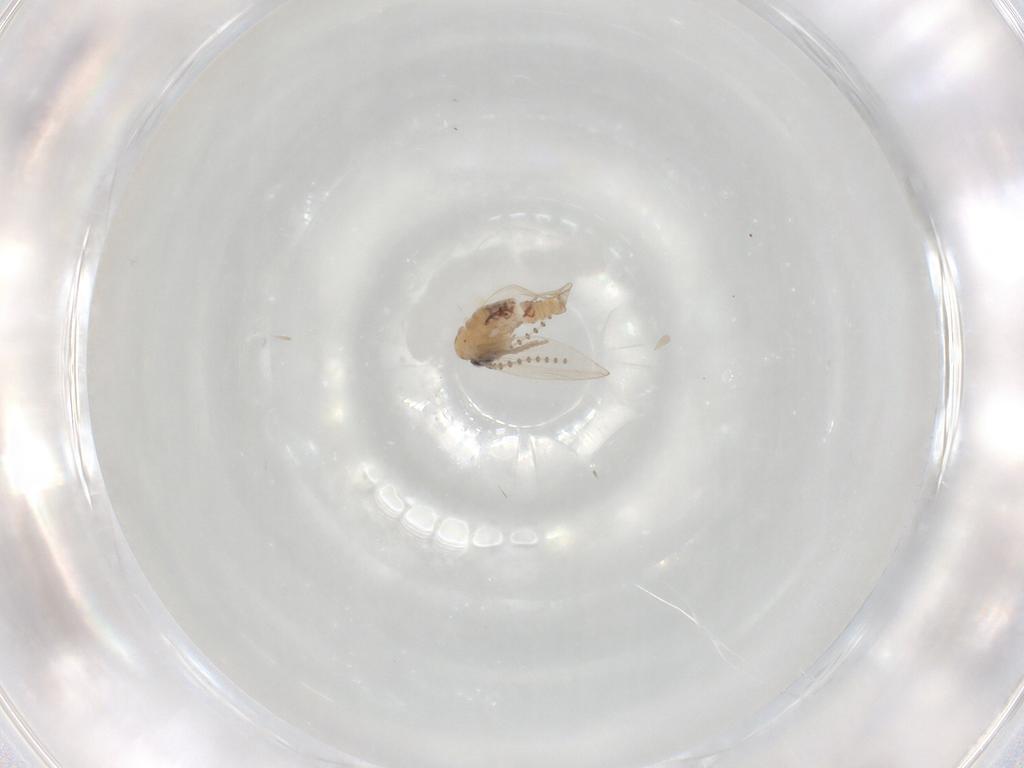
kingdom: Animalia
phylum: Arthropoda
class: Insecta
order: Diptera
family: Psychodidae
